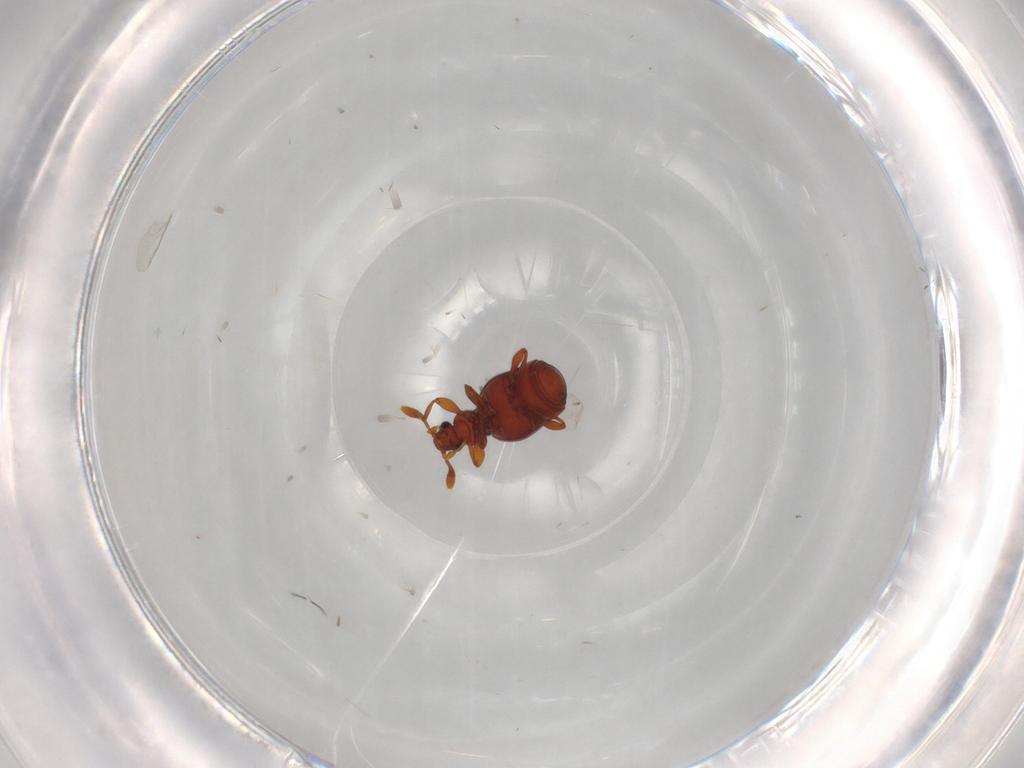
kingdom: Animalia
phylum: Arthropoda
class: Insecta
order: Coleoptera
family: Staphylinidae
